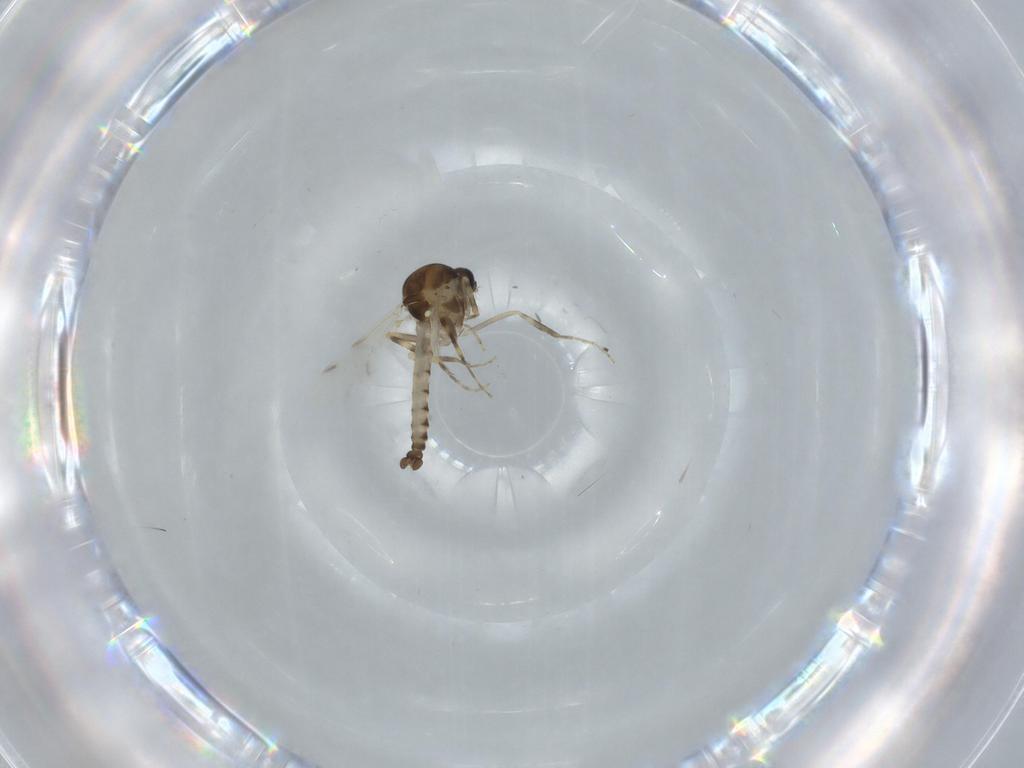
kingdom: Animalia
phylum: Arthropoda
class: Insecta
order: Diptera
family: Ceratopogonidae
